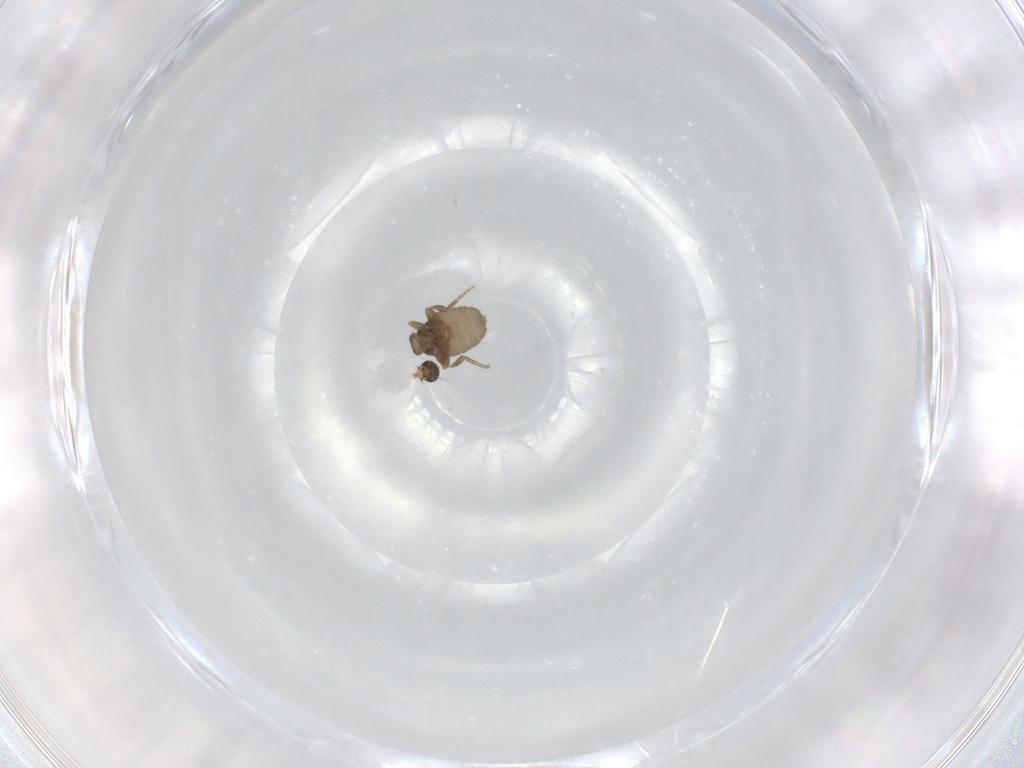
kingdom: Animalia
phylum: Arthropoda
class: Insecta
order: Diptera
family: Phoridae
